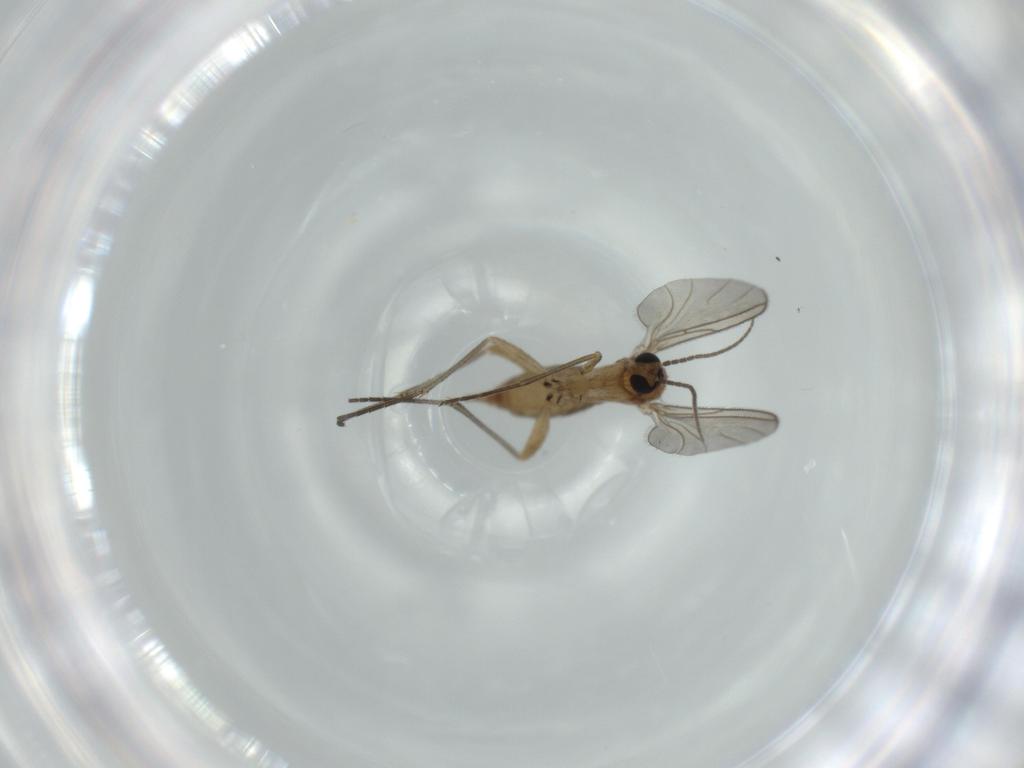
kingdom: Animalia
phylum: Arthropoda
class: Insecta
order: Diptera
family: Sciaridae
